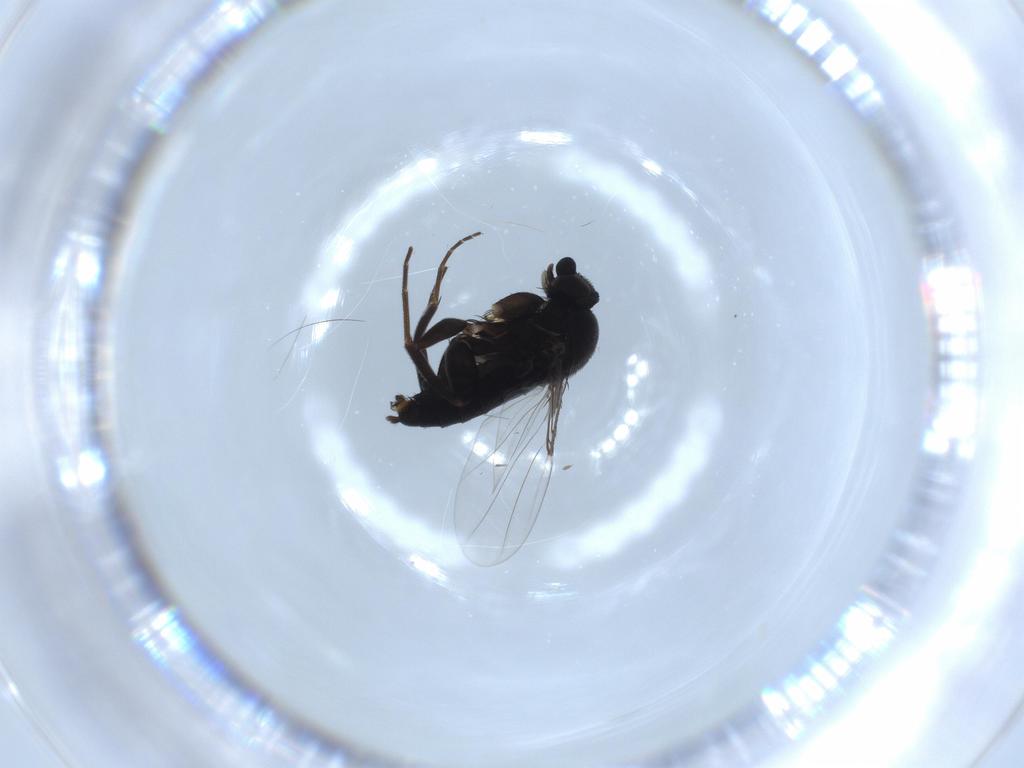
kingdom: Animalia
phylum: Arthropoda
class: Insecta
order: Diptera
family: Phoridae
